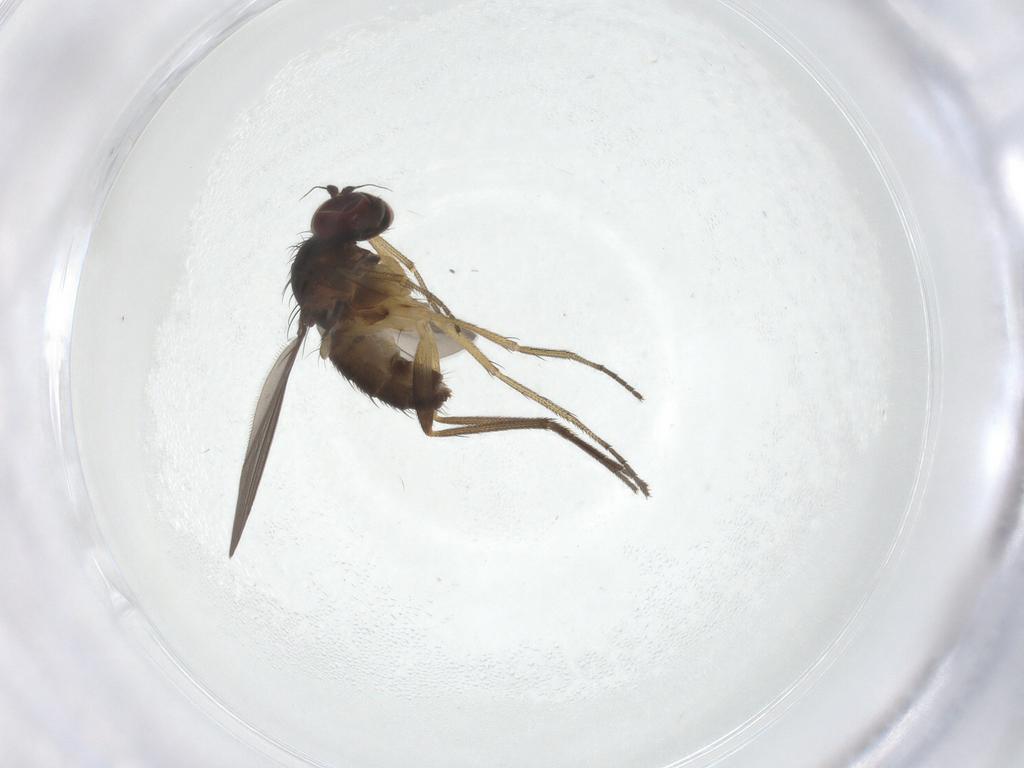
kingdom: Animalia
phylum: Arthropoda
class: Insecta
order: Diptera
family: Dolichopodidae
